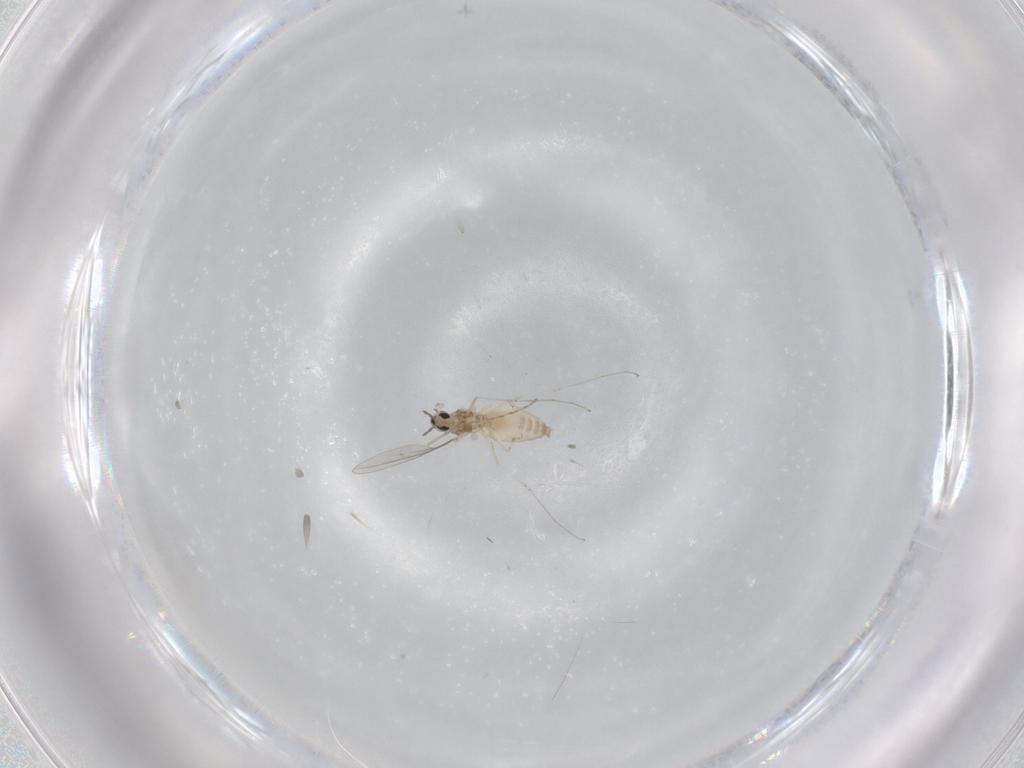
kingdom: Animalia
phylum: Arthropoda
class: Insecta
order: Diptera
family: Cecidomyiidae
